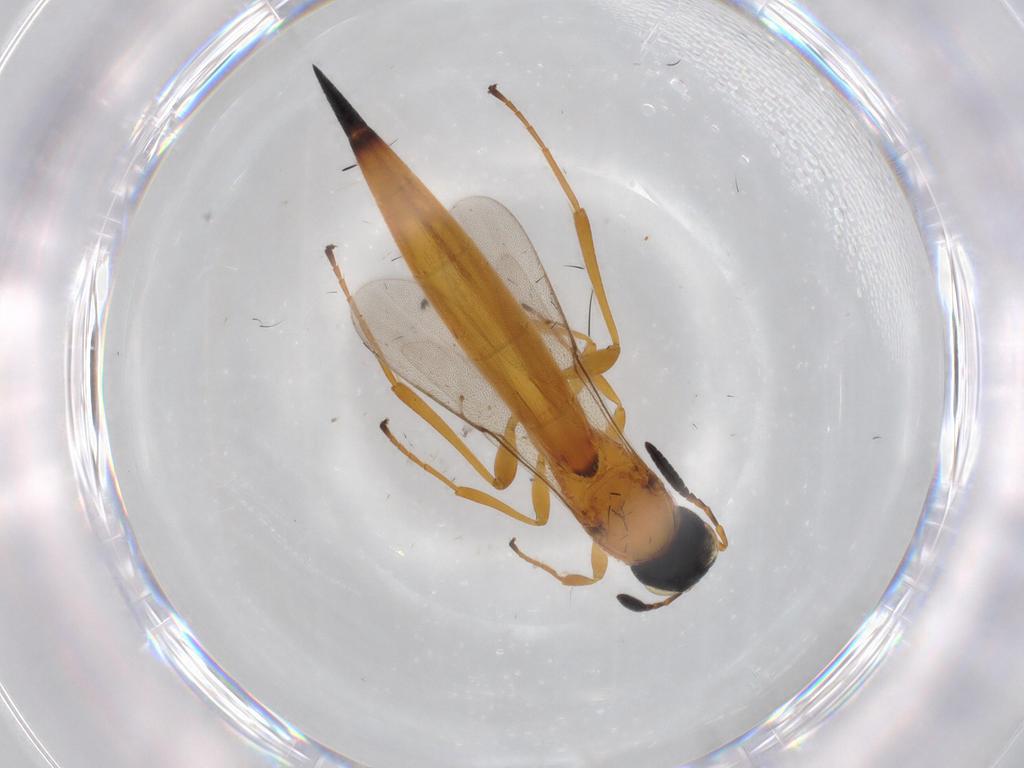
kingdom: Animalia
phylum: Arthropoda
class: Insecta
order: Hymenoptera
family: Scelionidae
